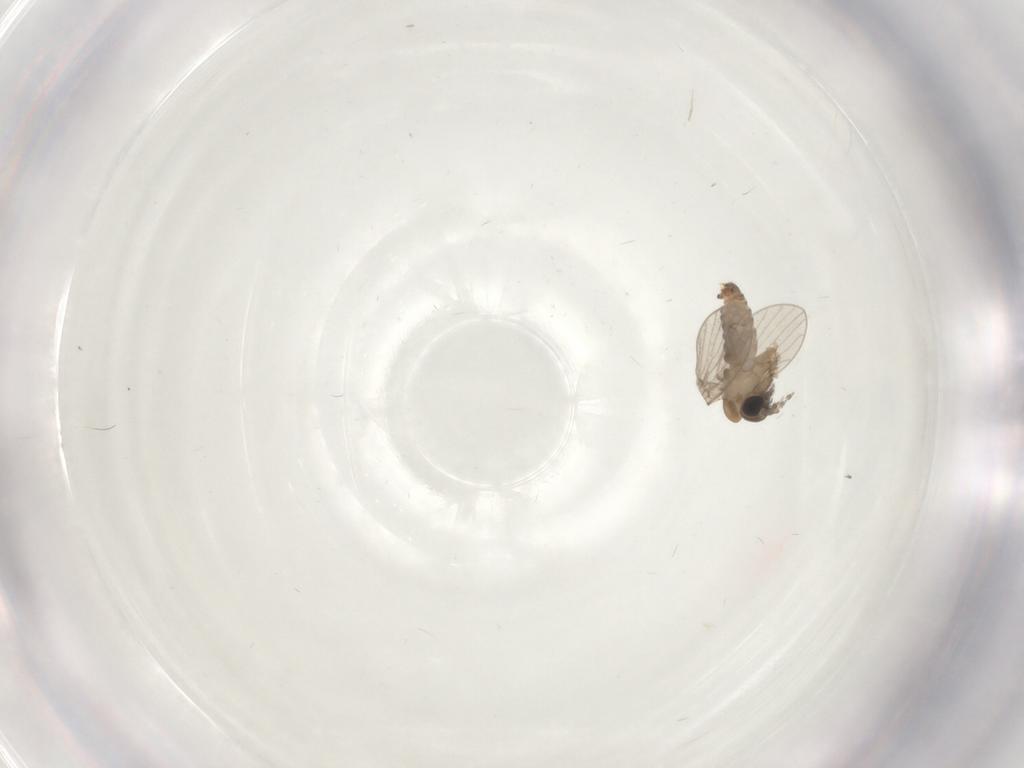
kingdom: Animalia
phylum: Arthropoda
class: Insecta
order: Diptera
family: Psychodidae
